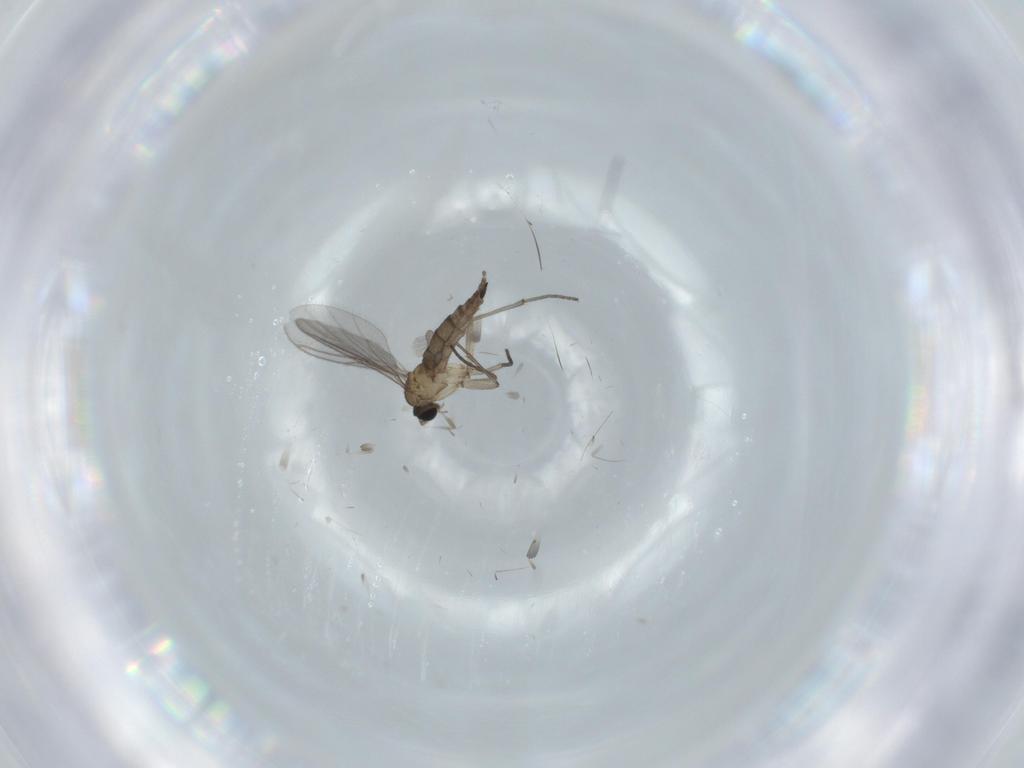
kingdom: Animalia
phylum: Arthropoda
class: Insecta
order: Diptera
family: Sciaridae
